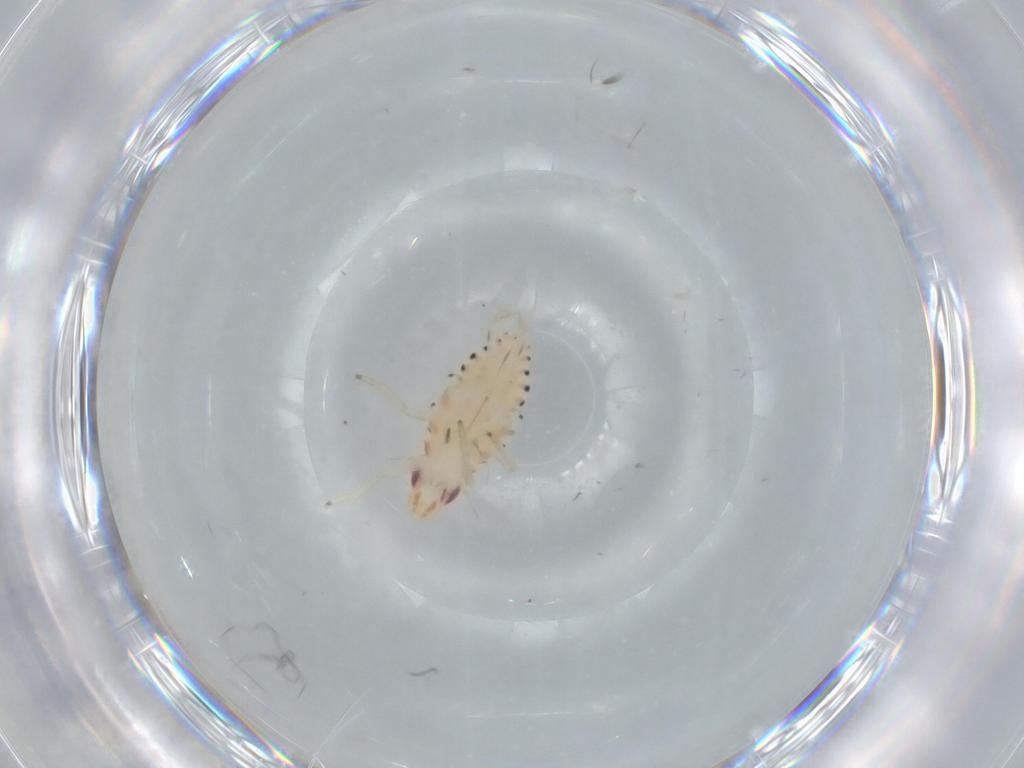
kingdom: Animalia
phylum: Arthropoda
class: Insecta
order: Hemiptera
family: Tropiduchidae
